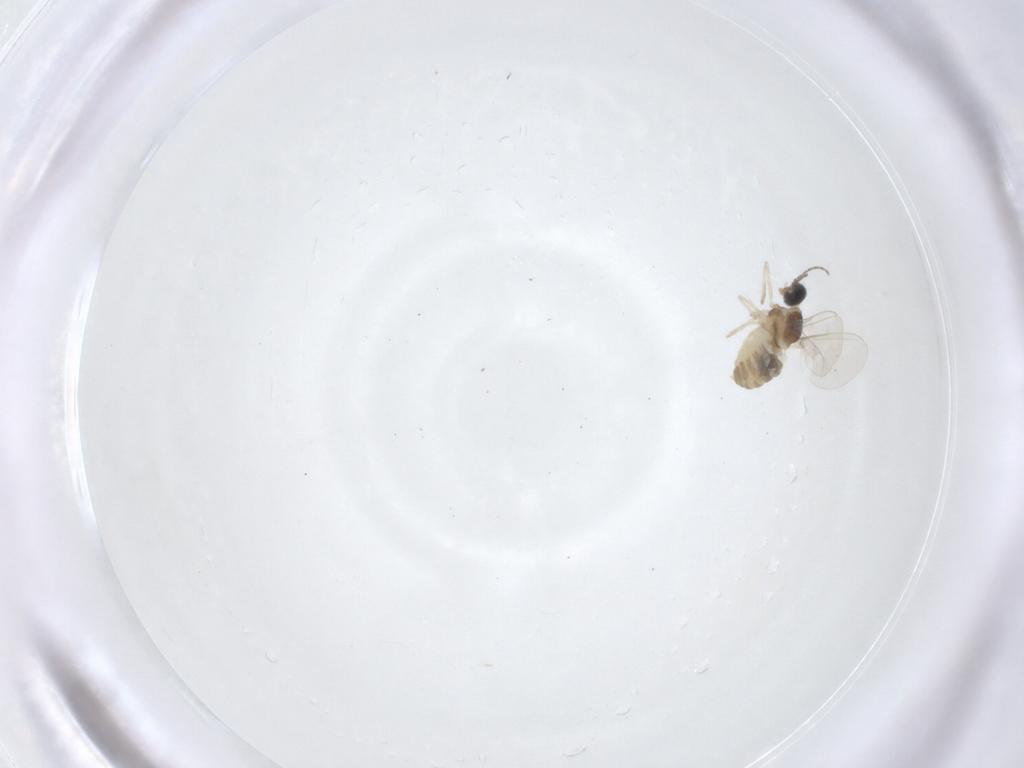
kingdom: Animalia
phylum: Arthropoda
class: Insecta
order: Diptera
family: Cecidomyiidae
